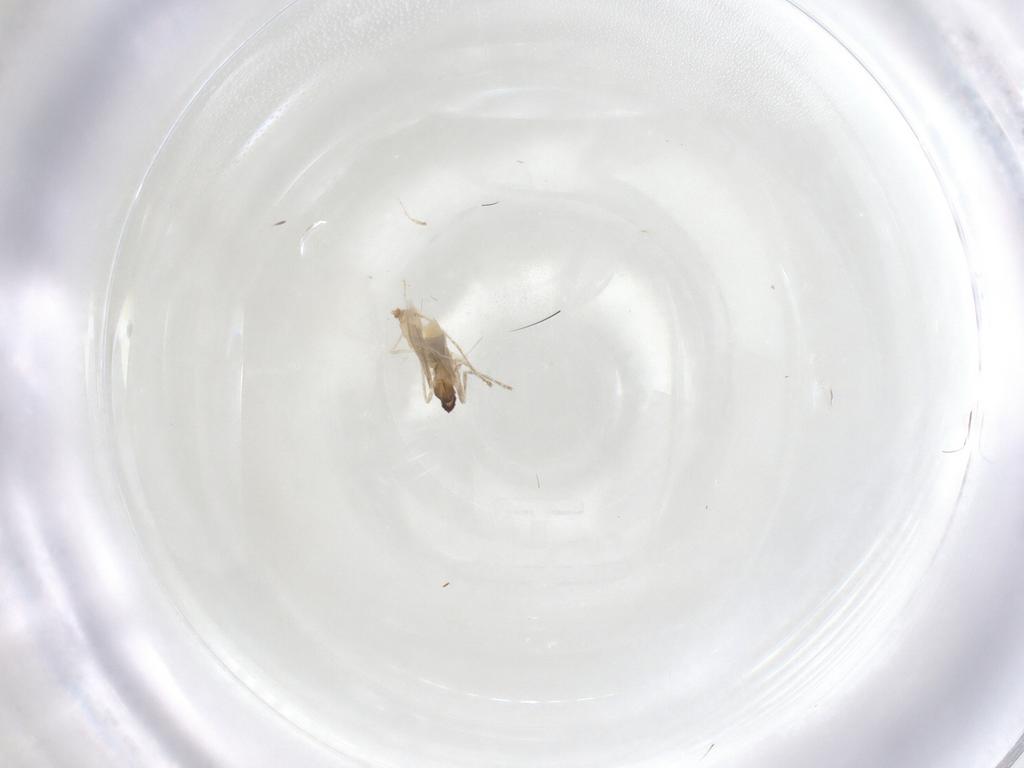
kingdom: Animalia
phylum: Arthropoda
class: Insecta
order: Diptera
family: Cecidomyiidae
